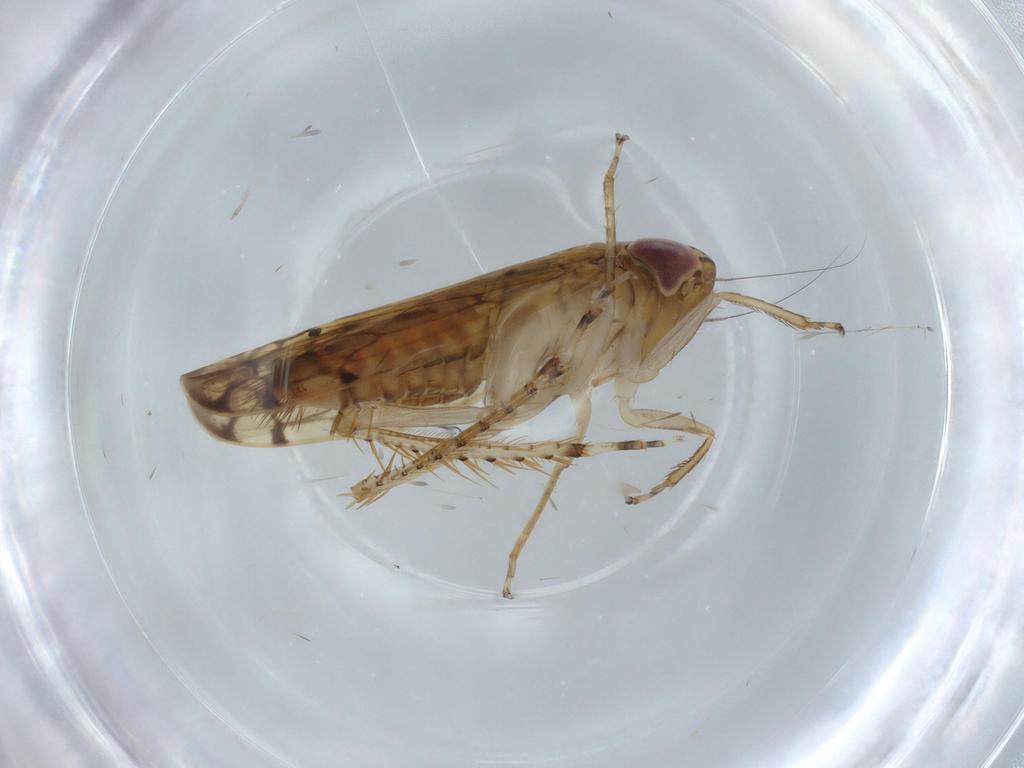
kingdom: Animalia
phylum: Arthropoda
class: Insecta
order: Hemiptera
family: Cicadellidae
